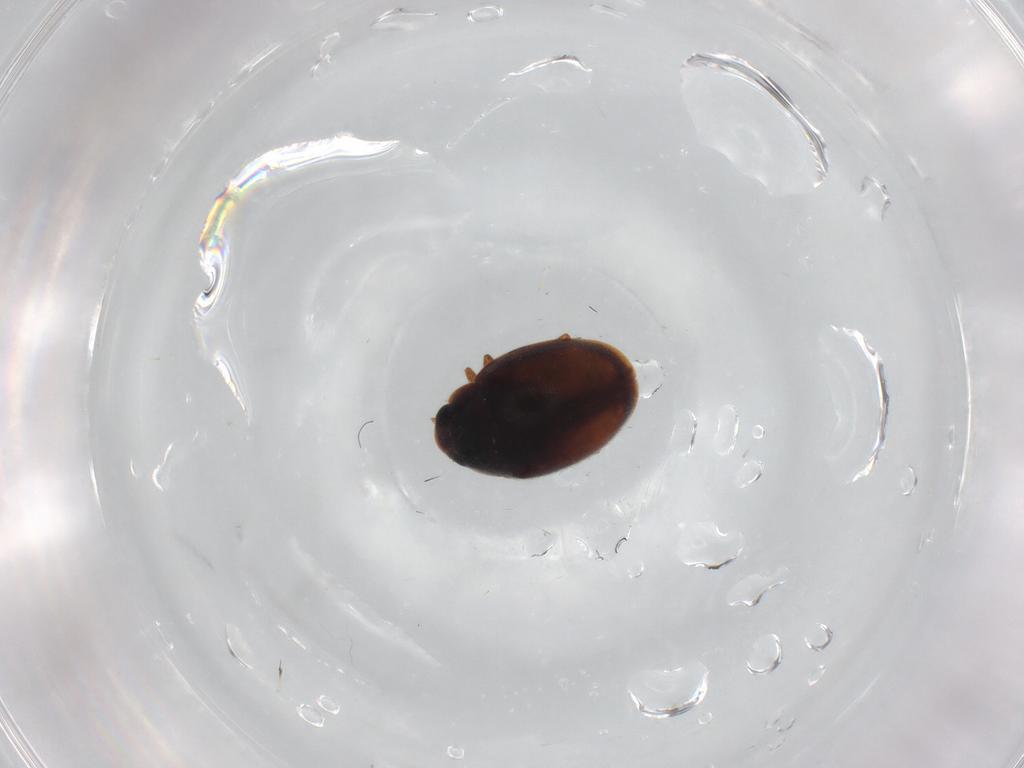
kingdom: Animalia
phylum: Arthropoda
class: Insecta
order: Coleoptera
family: Coccinellidae
